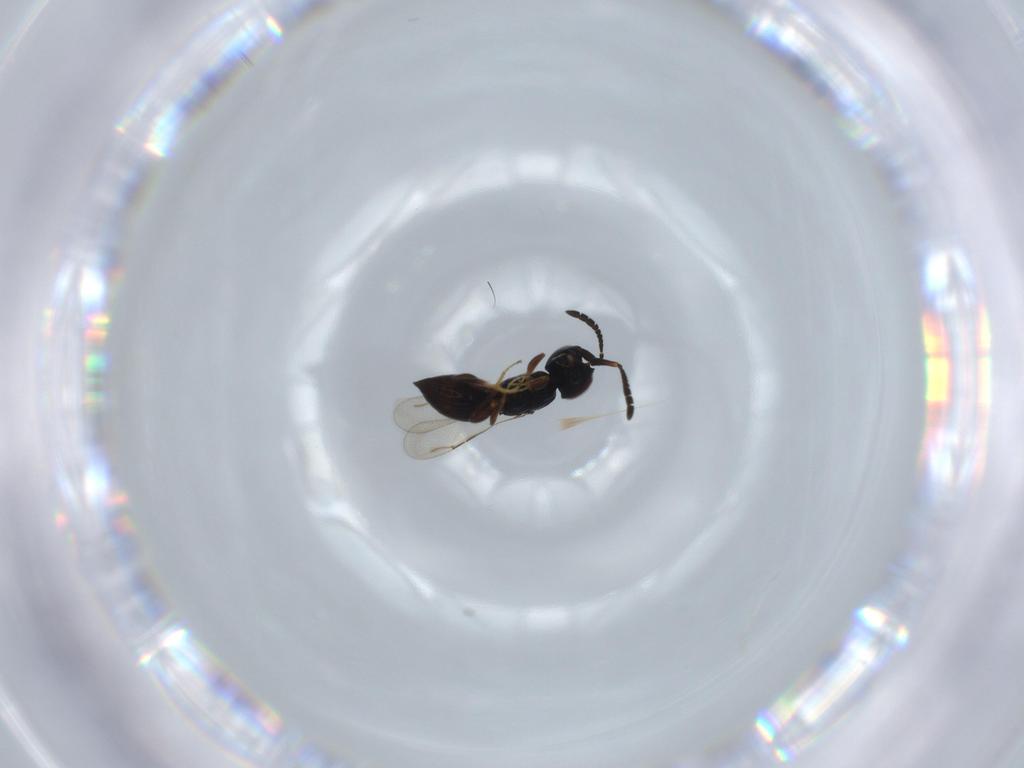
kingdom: Animalia
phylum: Arthropoda
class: Insecta
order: Hymenoptera
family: Ceraphronidae
